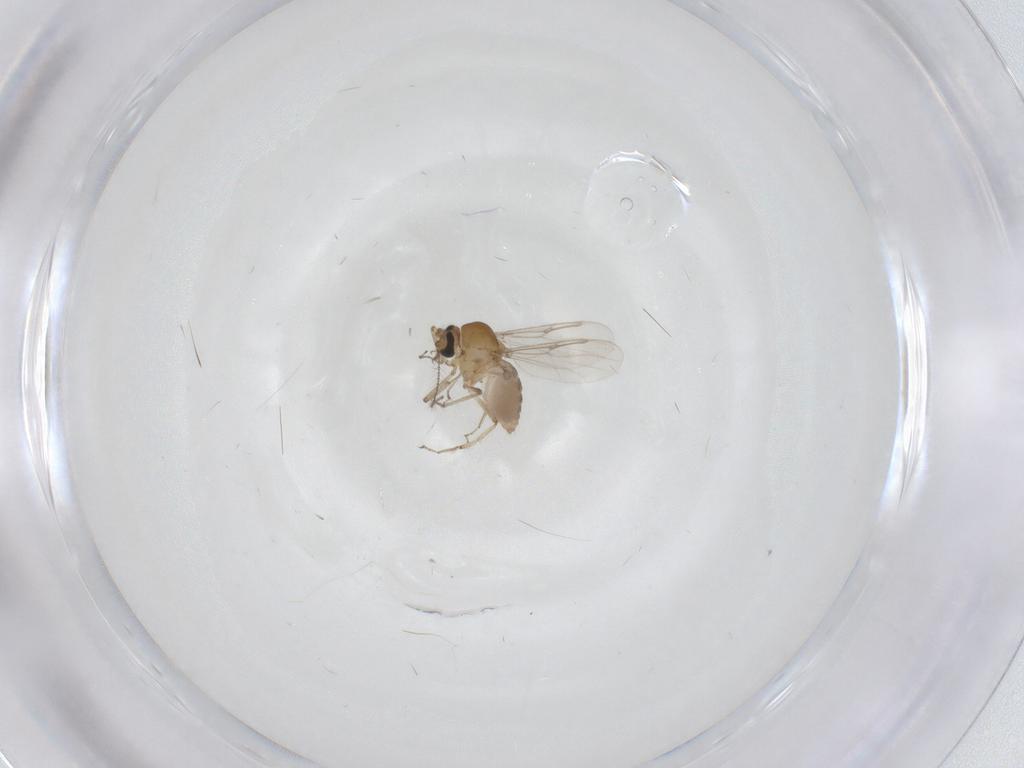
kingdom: Animalia
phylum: Arthropoda
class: Insecta
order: Diptera
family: Ceratopogonidae
